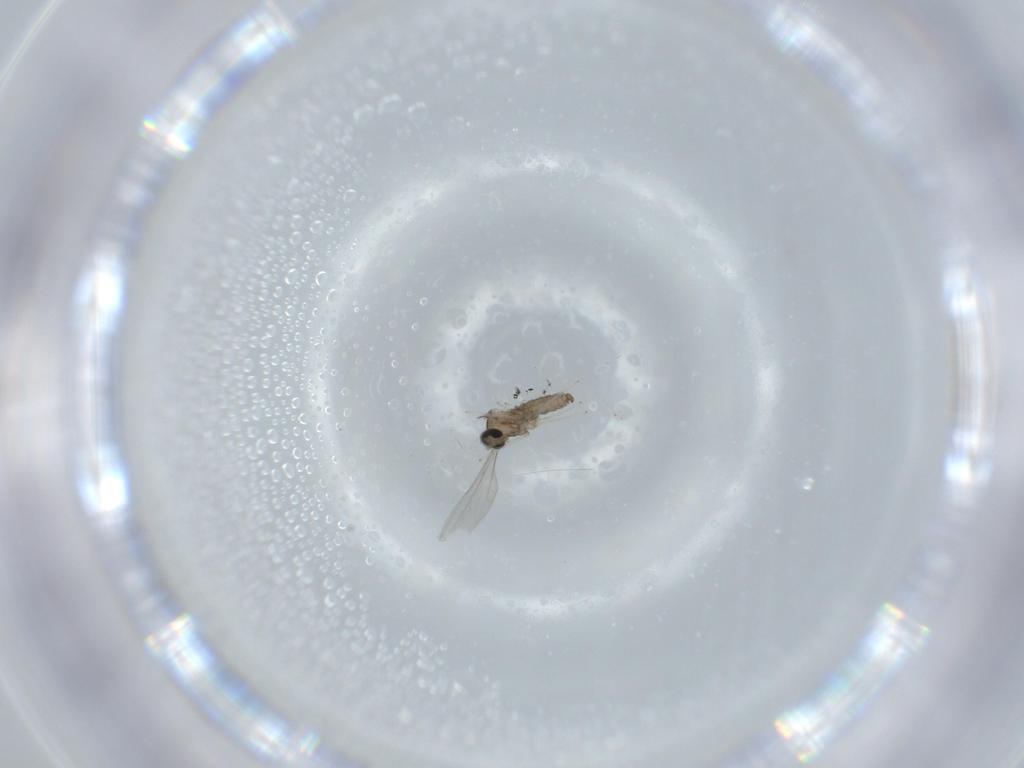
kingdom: Animalia
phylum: Arthropoda
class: Insecta
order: Diptera
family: Cecidomyiidae
